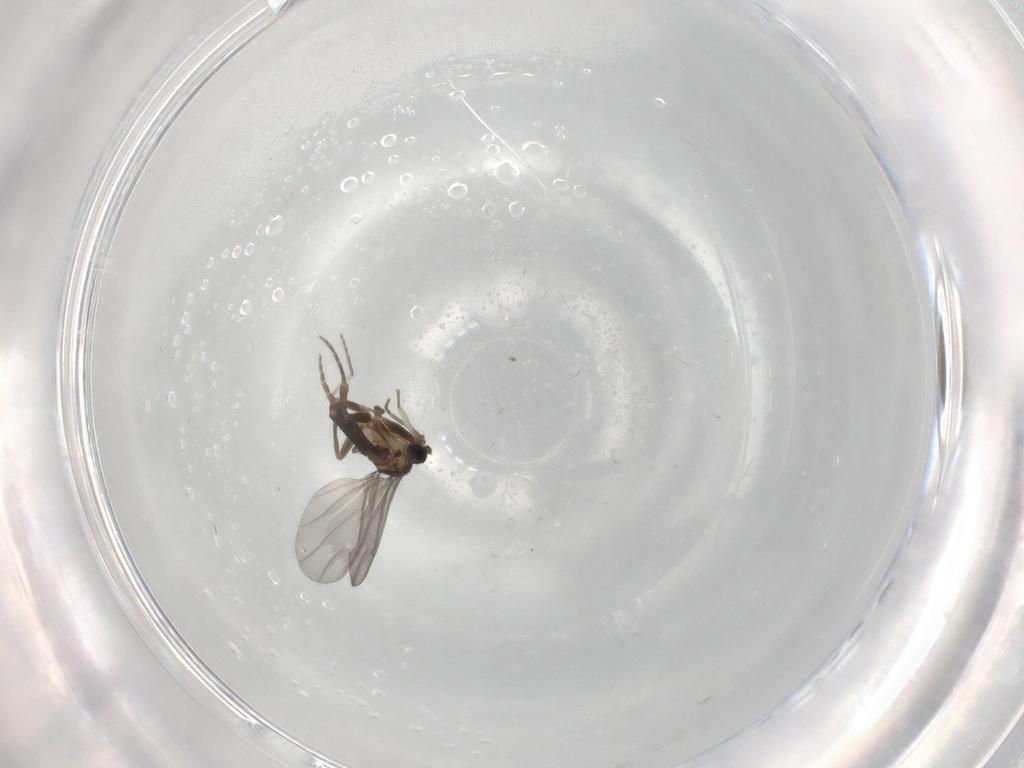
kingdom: Animalia
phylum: Arthropoda
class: Insecta
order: Diptera
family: Phoridae
